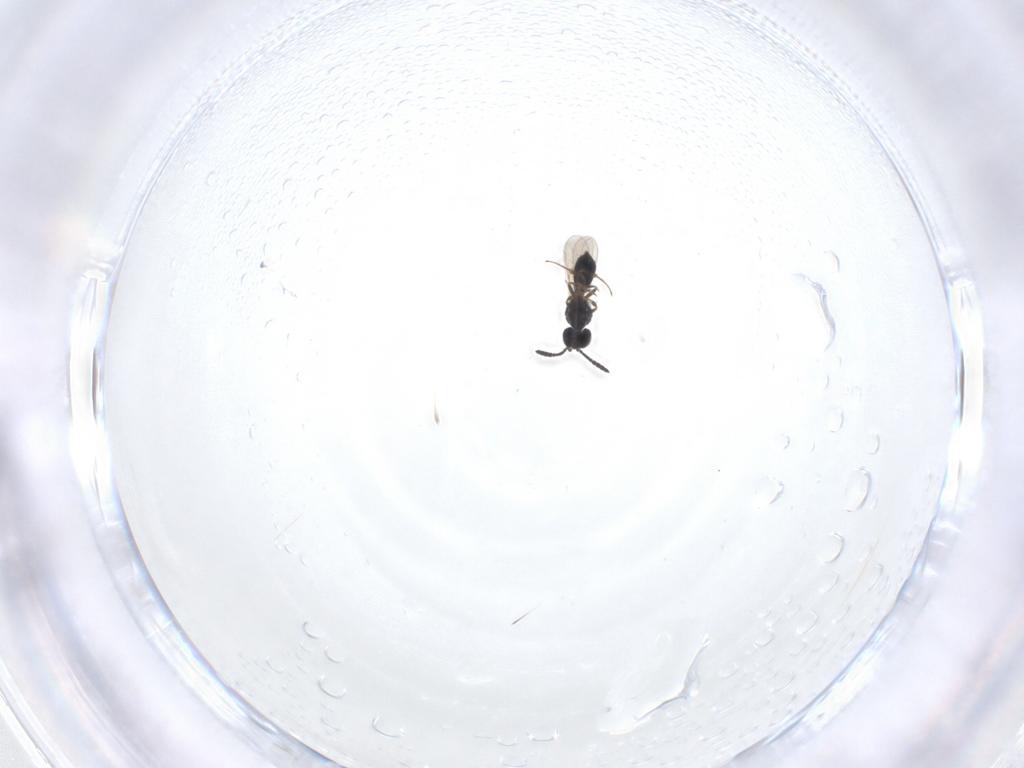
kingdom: Animalia
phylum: Arthropoda
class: Insecta
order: Hymenoptera
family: Scelionidae
